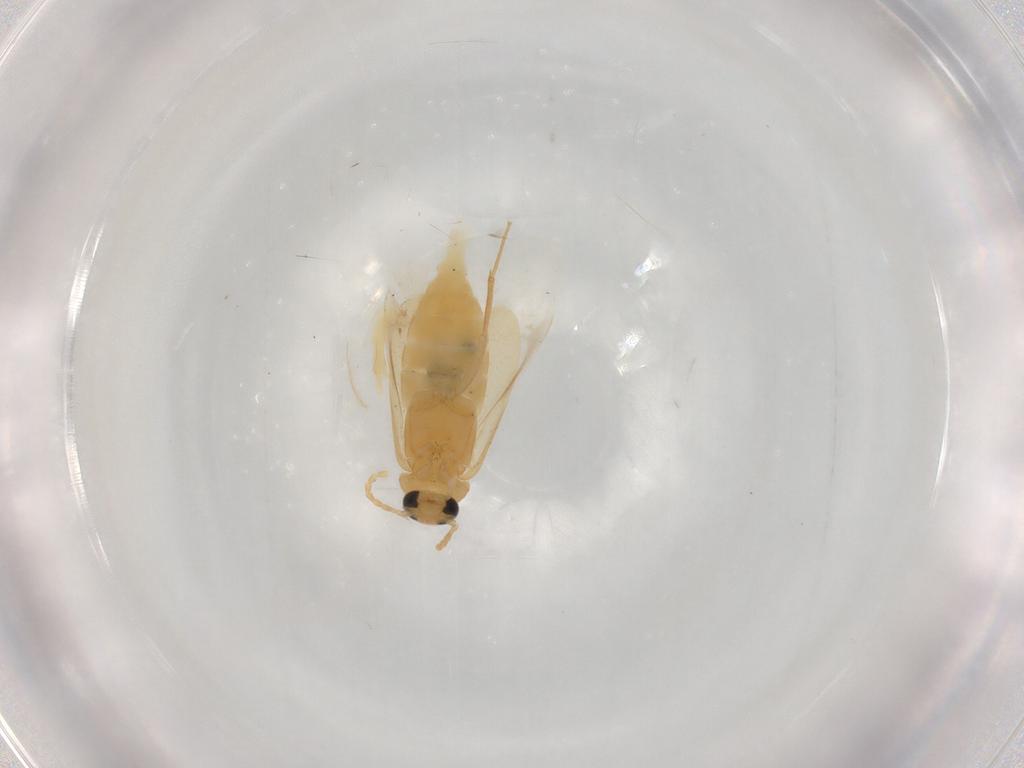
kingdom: Animalia
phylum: Arthropoda
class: Insecta
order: Coleoptera
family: Scraptiidae
